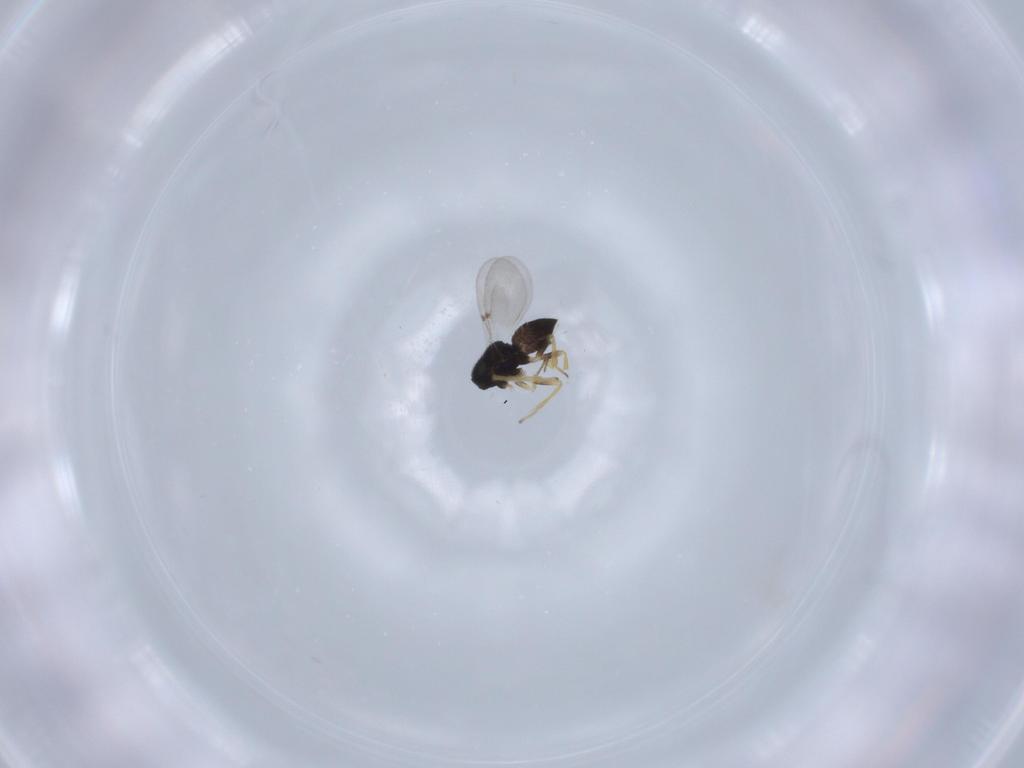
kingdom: Animalia
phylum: Arthropoda
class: Insecta
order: Hymenoptera
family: Encyrtidae
